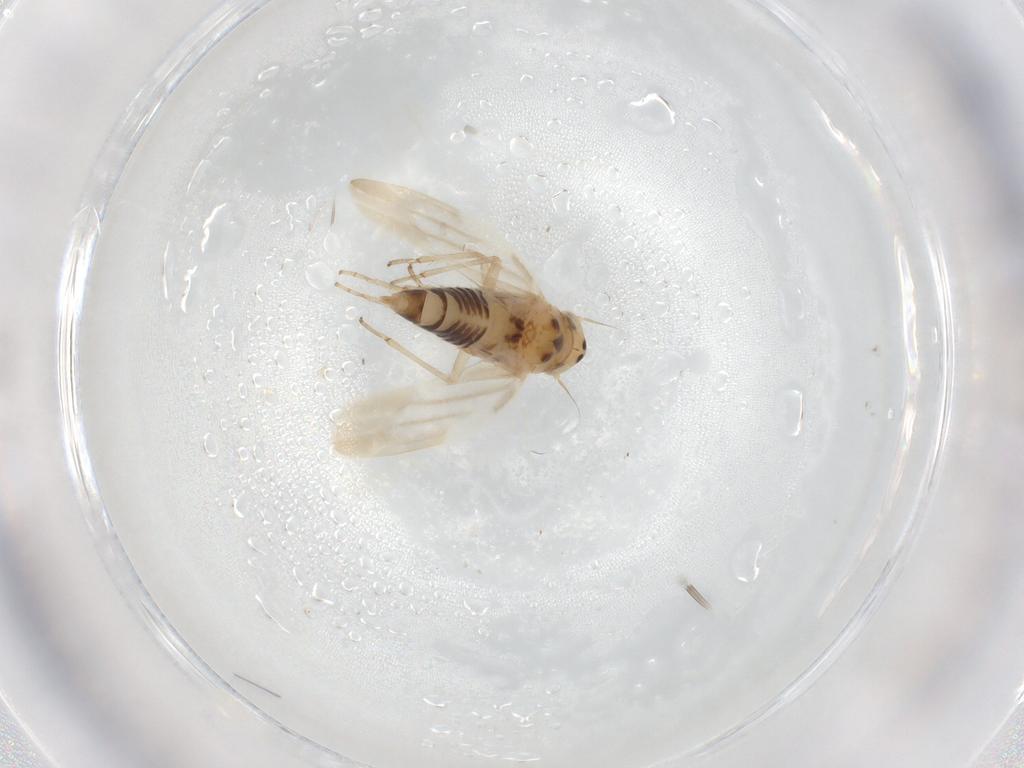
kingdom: Animalia
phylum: Arthropoda
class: Insecta
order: Hemiptera
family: Cicadellidae
